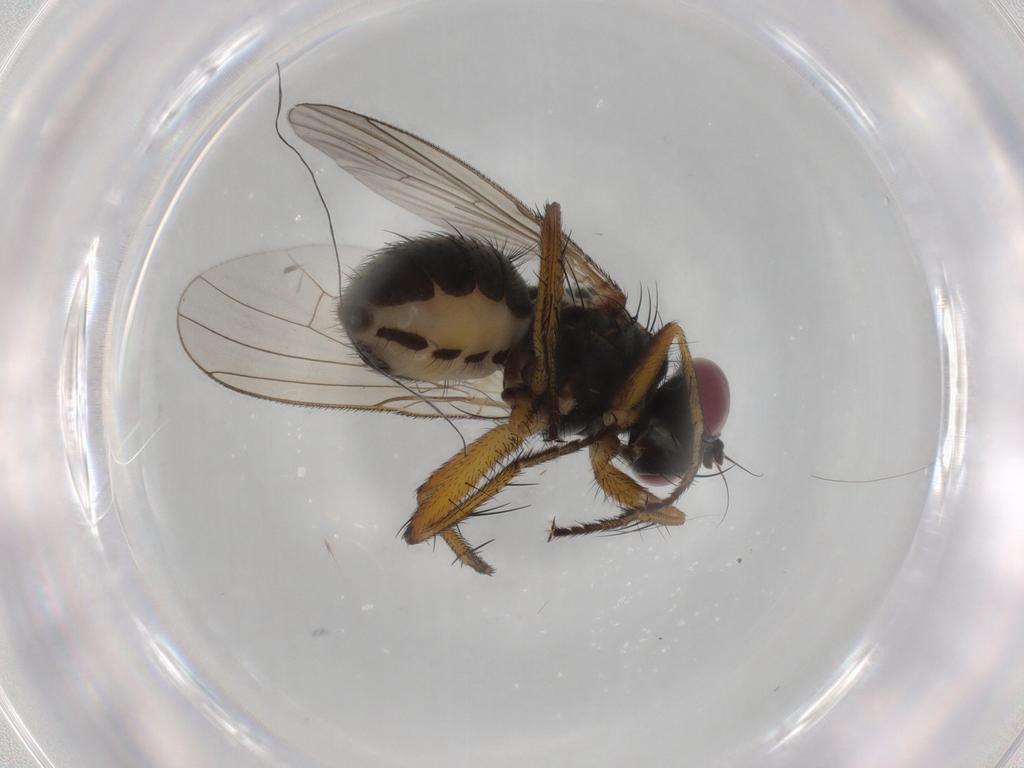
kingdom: Animalia
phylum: Arthropoda
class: Insecta
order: Diptera
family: Muscidae
